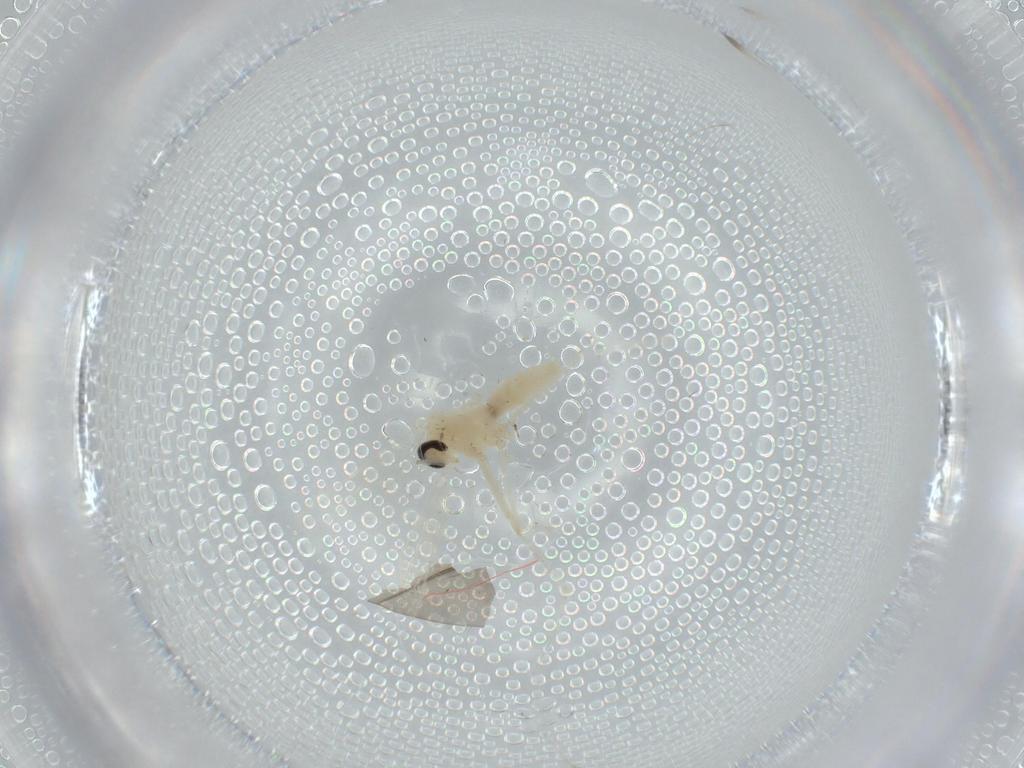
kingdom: Animalia
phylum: Arthropoda
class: Insecta
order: Diptera
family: Cecidomyiidae
